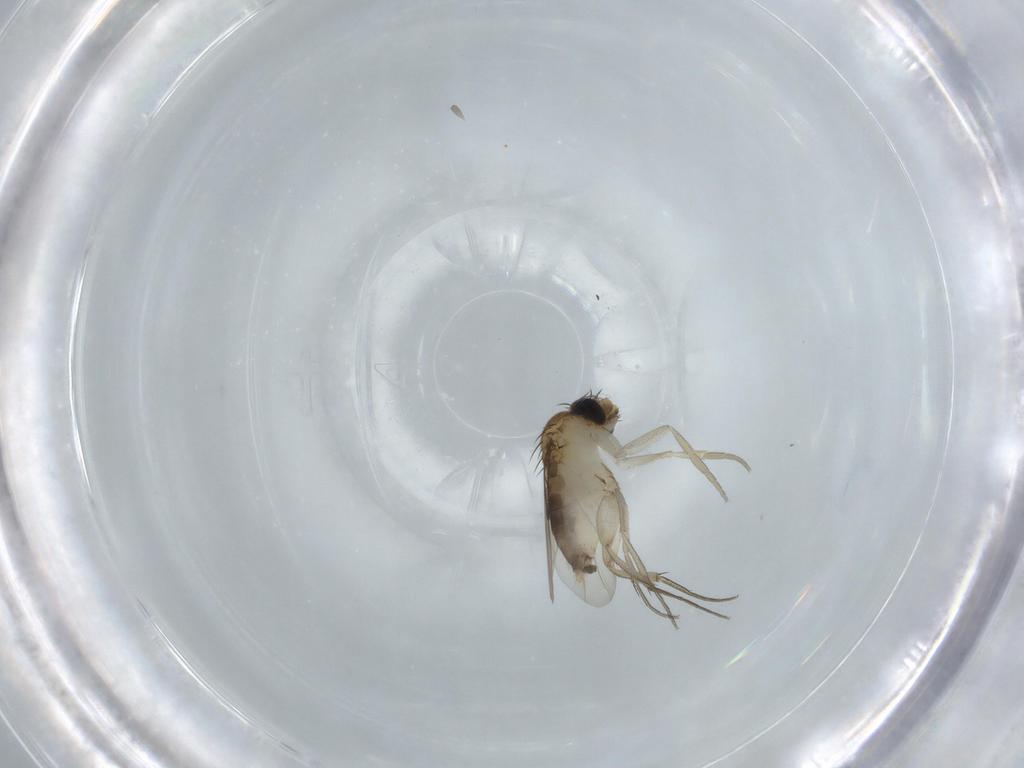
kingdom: Animalia
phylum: Arthropoda
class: Insecta
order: Diptera
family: Phoridae
